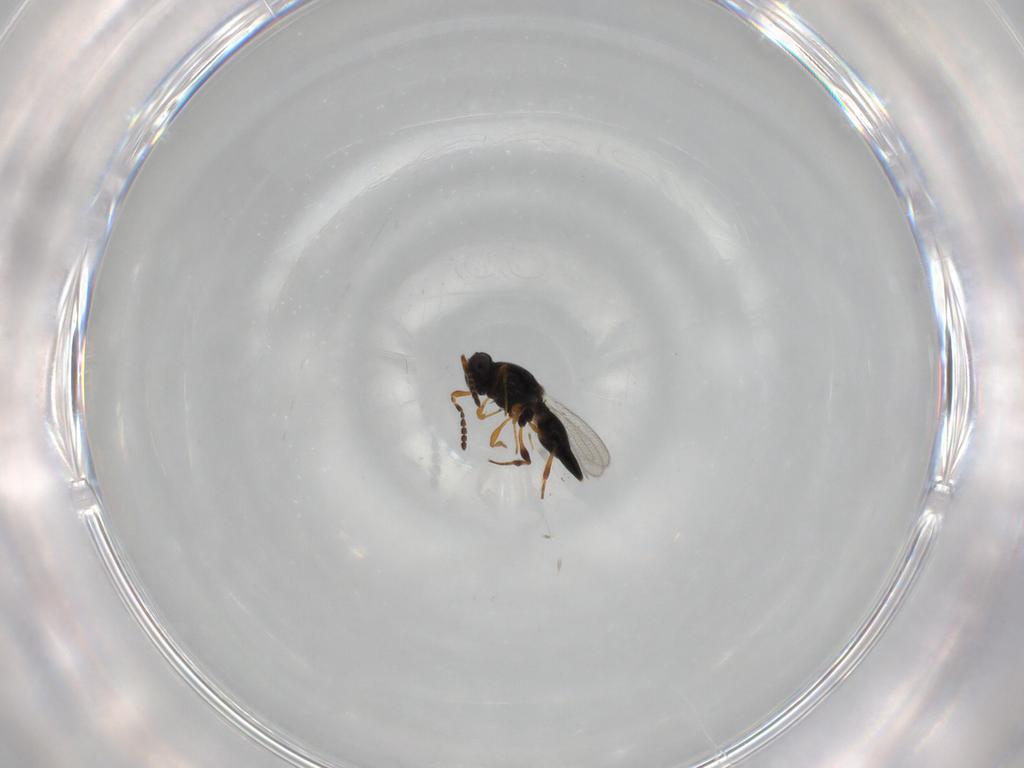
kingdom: Animalia
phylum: Arthropoda
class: Insecta
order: Hymenoptera
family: Platygastridae
